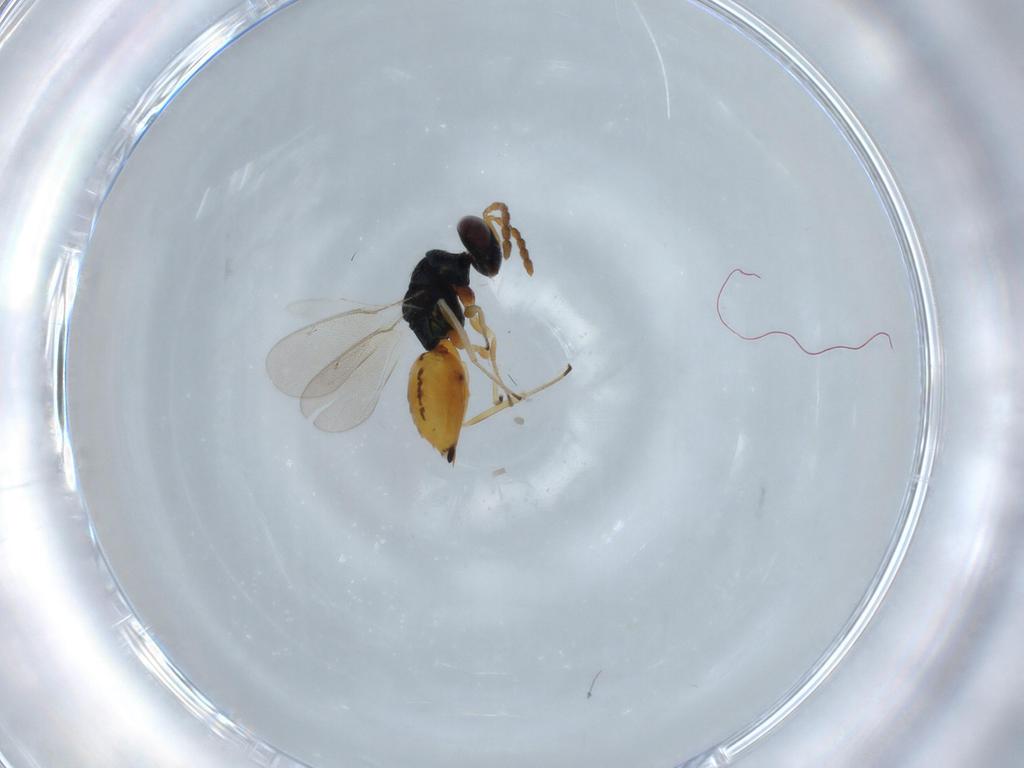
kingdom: Animalia
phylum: Arthropoda
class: Insecta
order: Hymenoptera
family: Eulophidae
